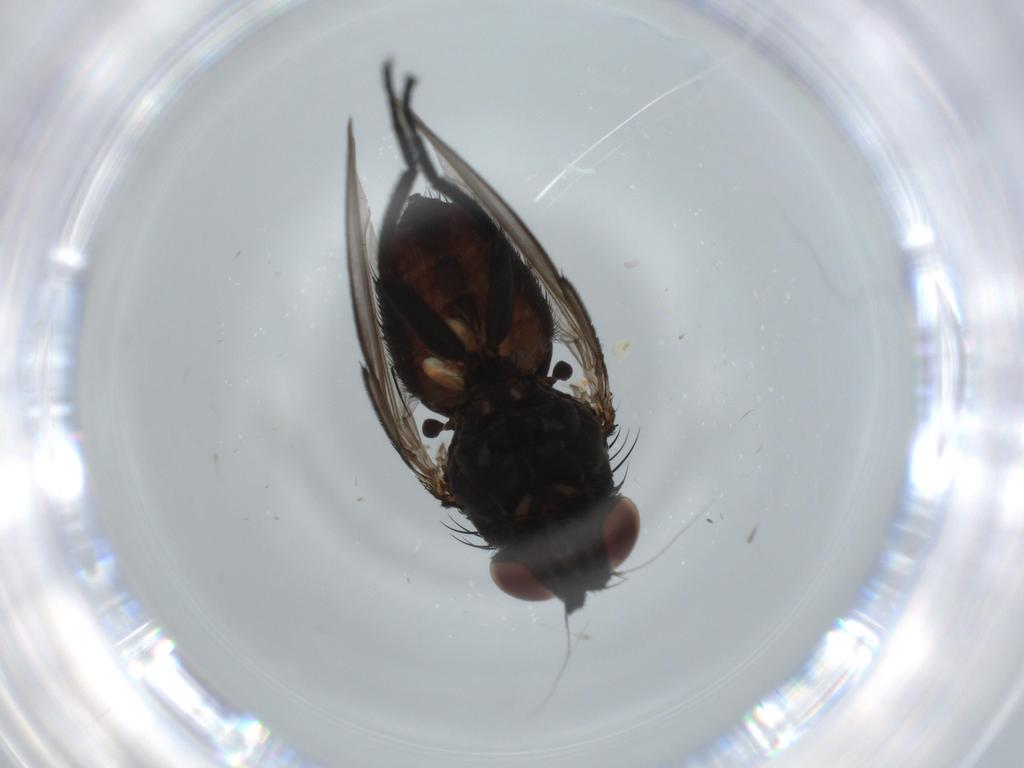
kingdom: Animalia
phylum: Arthropoda
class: Insecta
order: Diptera
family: Milichiidae
